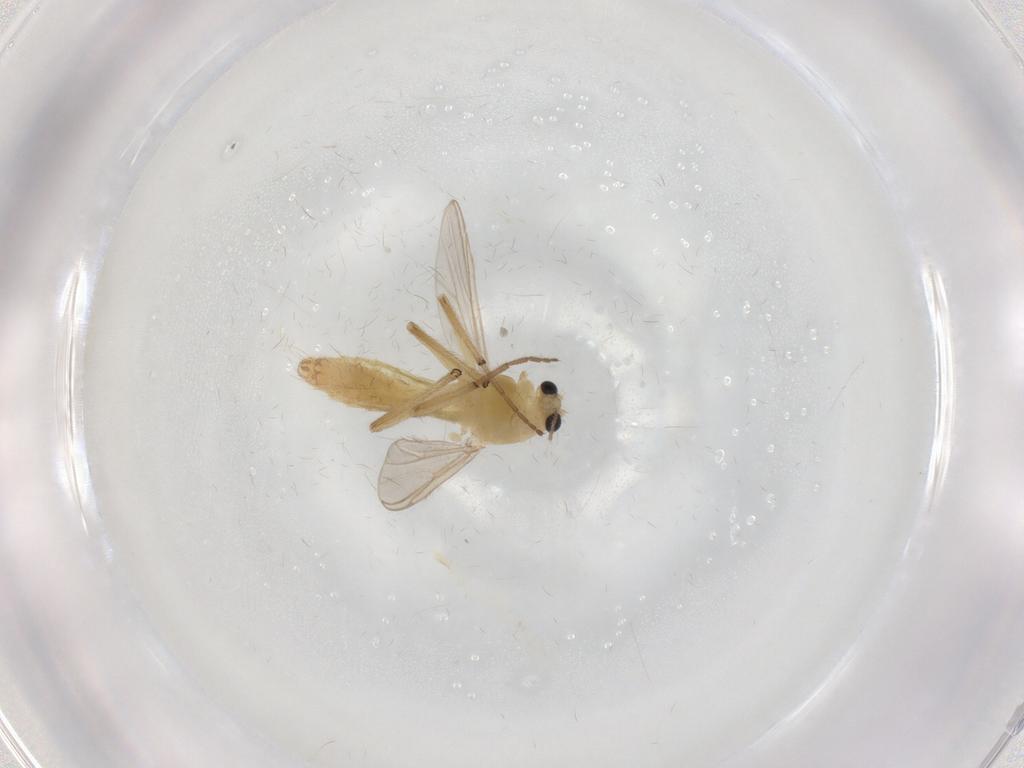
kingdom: Animalia
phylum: Arthropoda
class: Insecta
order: Diptera
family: Chironomidae
